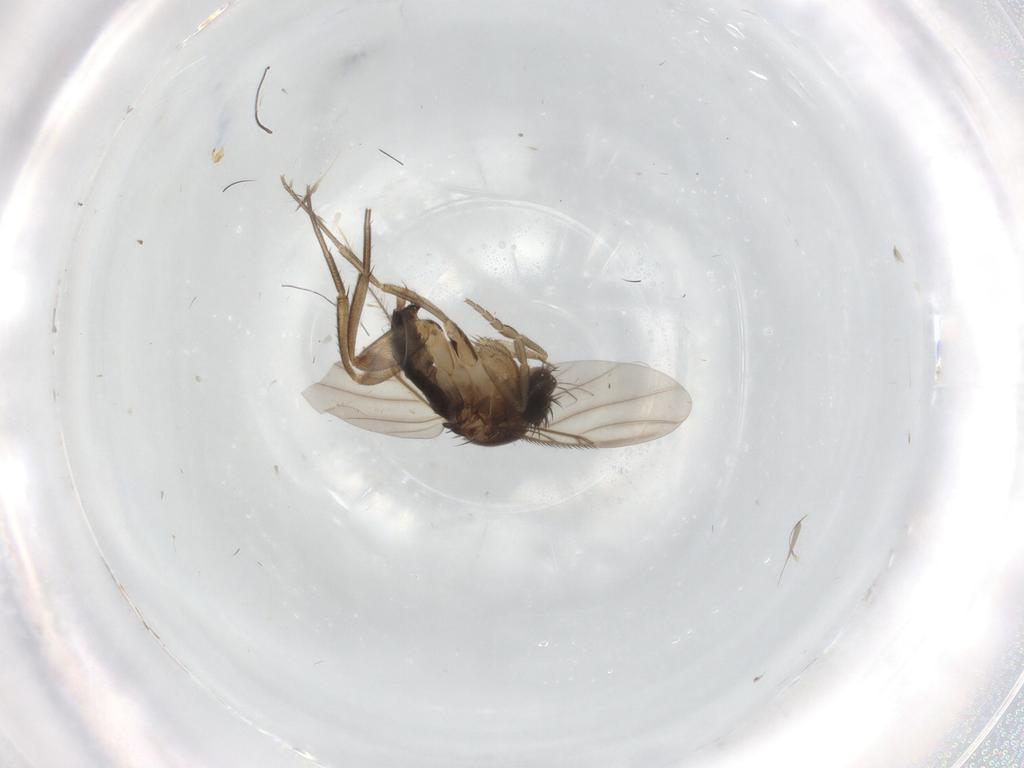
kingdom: Animalia
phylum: Arthropoda
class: Insecta
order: Diptera
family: Phoridae
